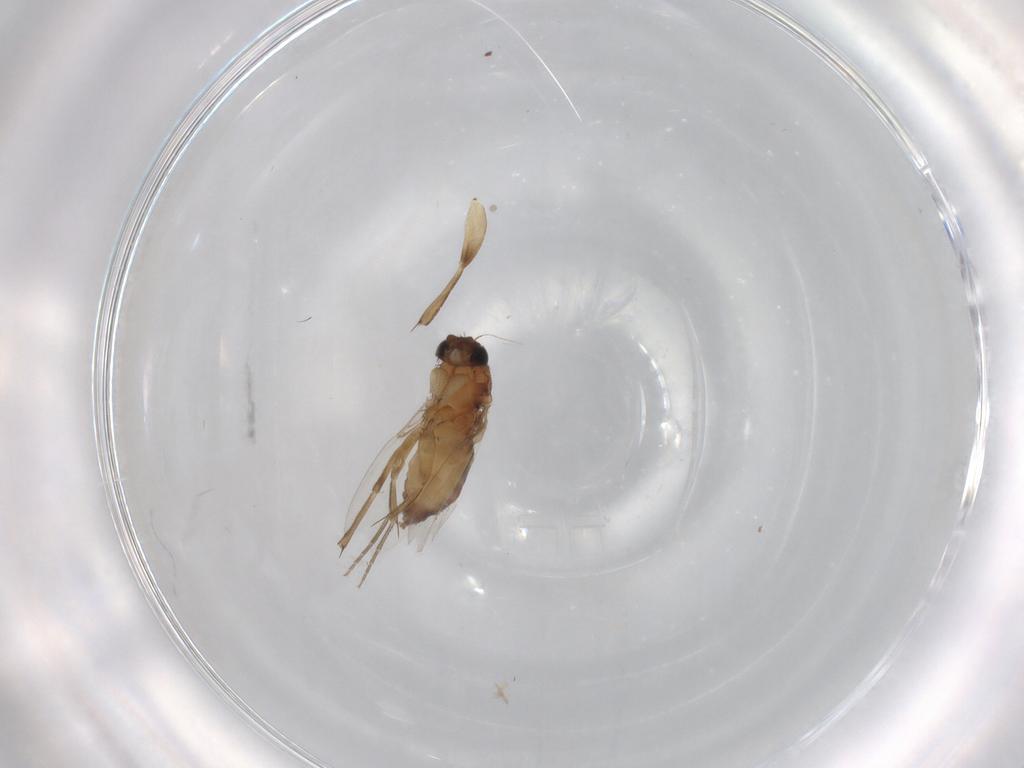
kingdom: Animalia
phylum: Arthropoda
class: Insecta
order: Diptera
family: Phoridae
